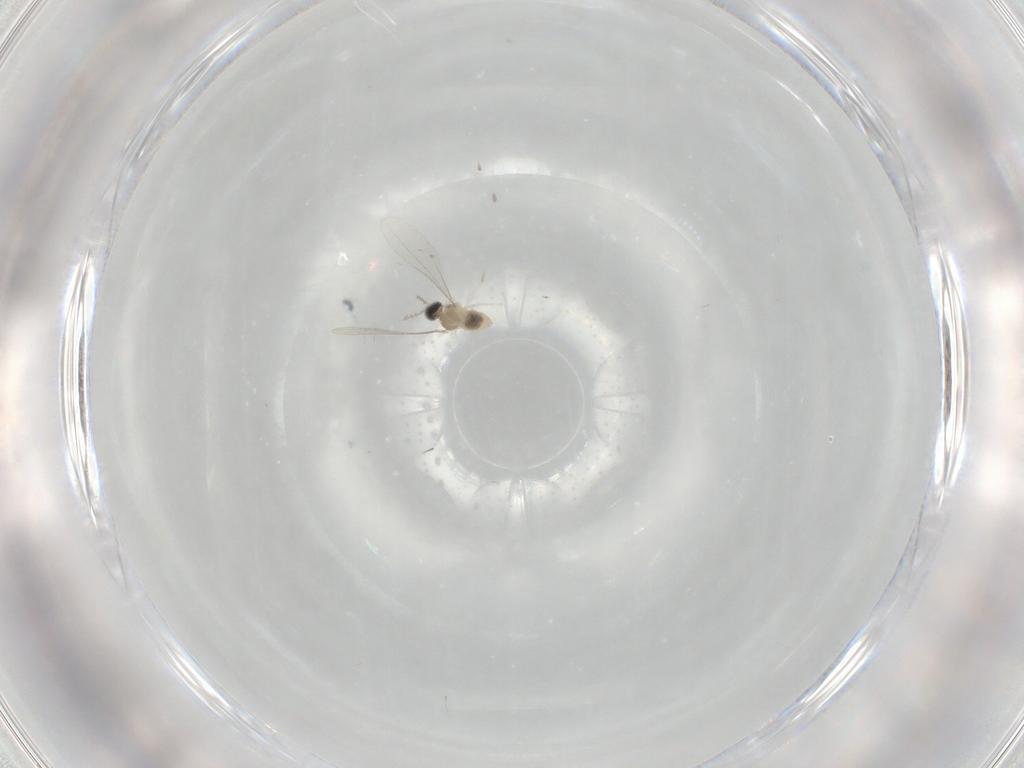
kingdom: Animalia
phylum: Arthropoda
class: Insecta
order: Diptera
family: Cecidomyiidae
